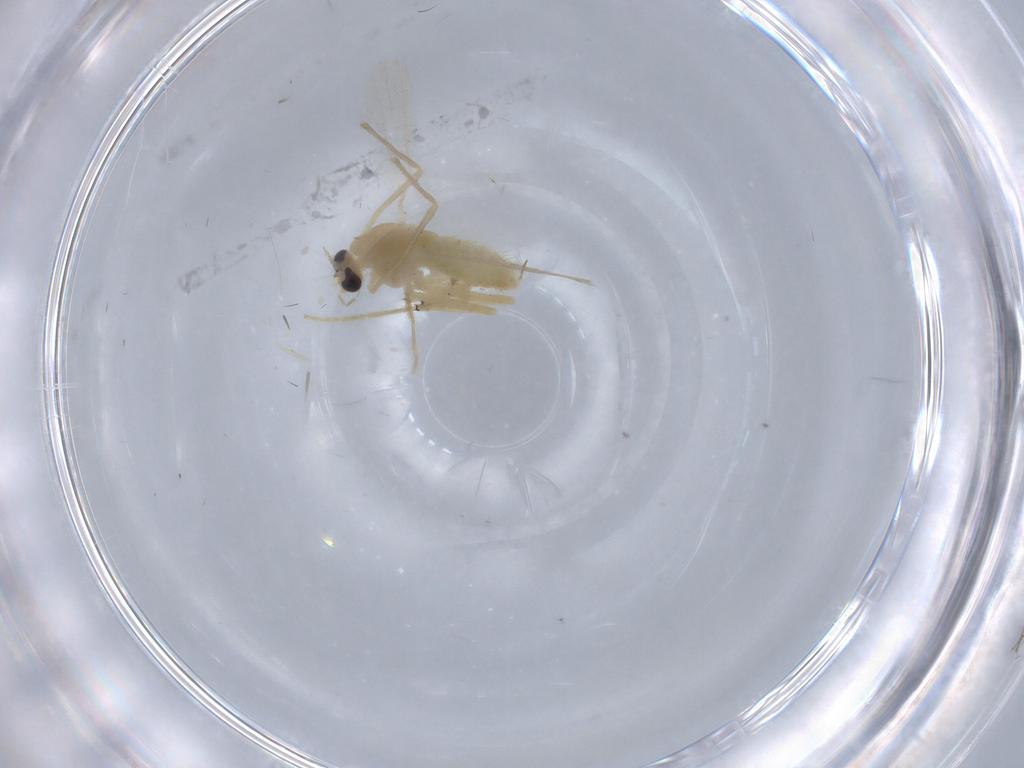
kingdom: Animalia
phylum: Arthropoda
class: Insecta
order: Diptera
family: Chironomidae
